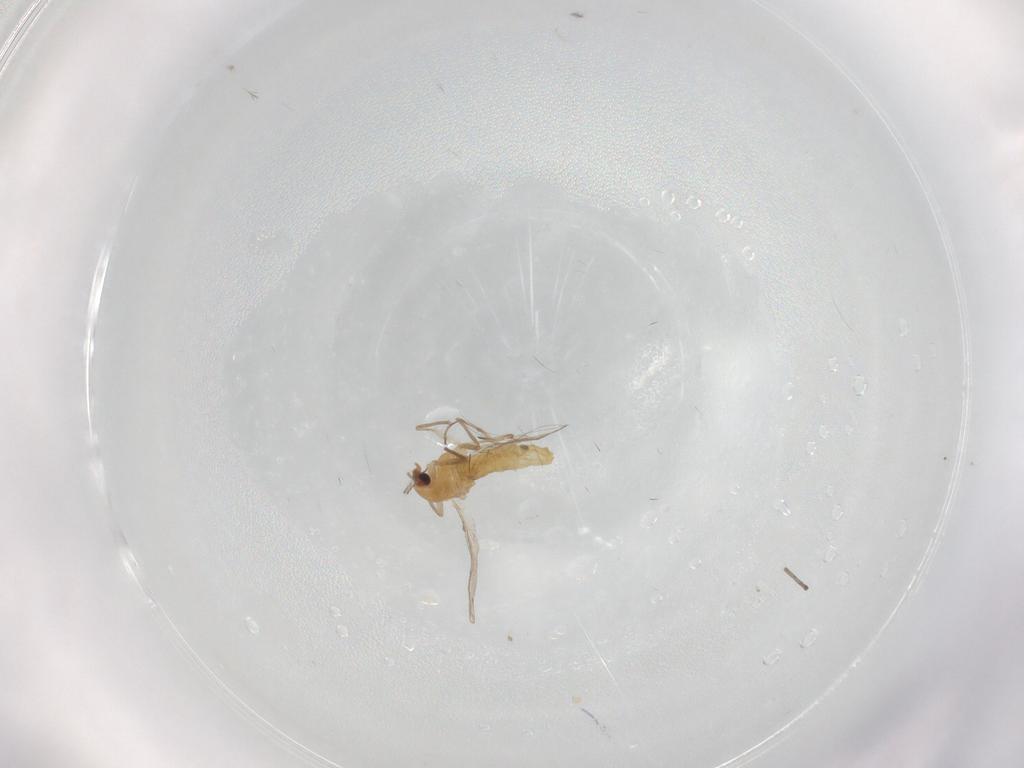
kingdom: Animalia
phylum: Arthropoda
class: Insecta
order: Diptera
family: Chironomidae
